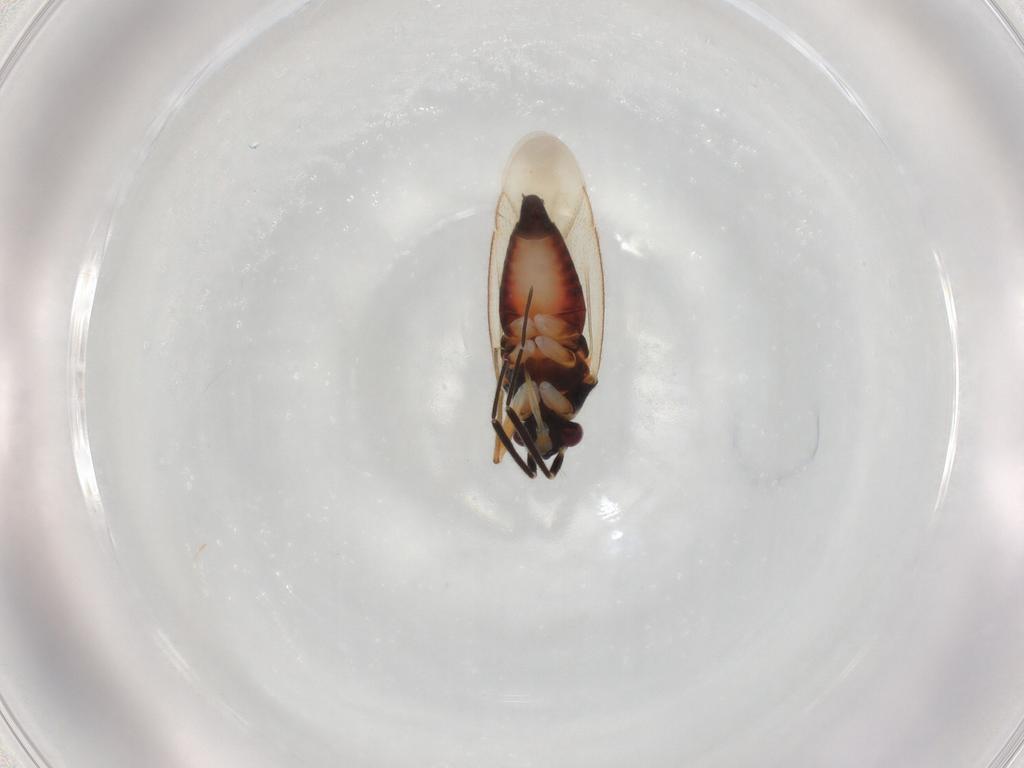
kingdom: Animalia
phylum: Arthropoda
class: Insecta
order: Hemiptera
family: Miridae
